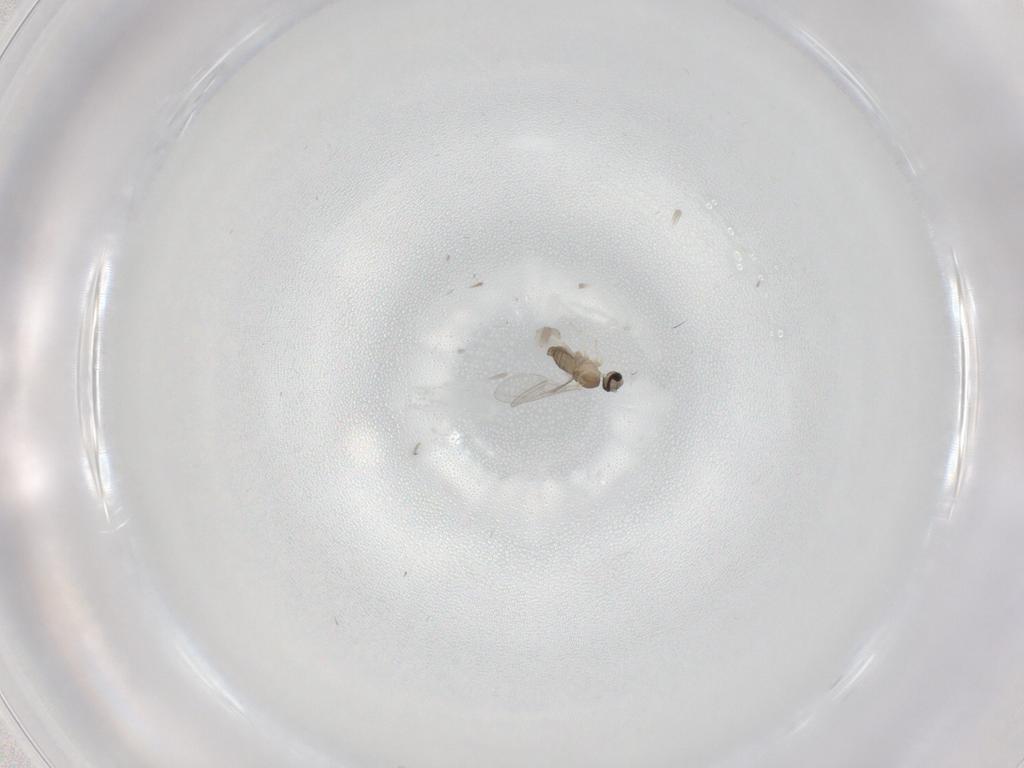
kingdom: Animalia
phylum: Arthropoda
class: Insecta
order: Diptera
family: Cecidomyiidae
